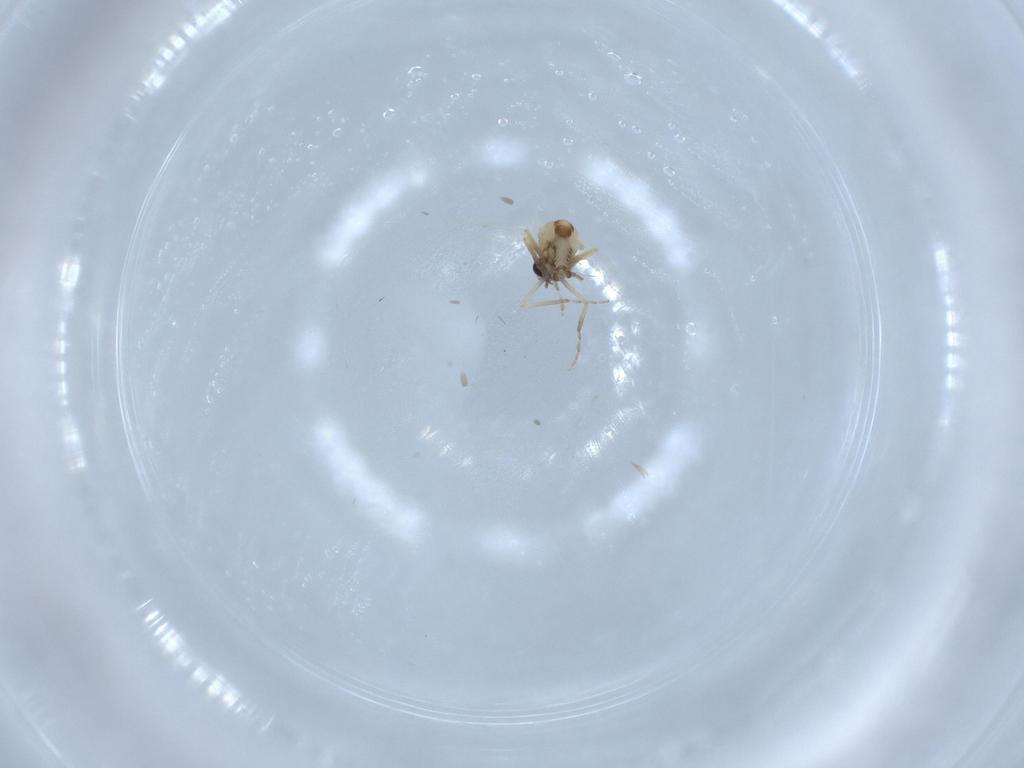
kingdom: Animalia
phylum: Arthropoda
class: Insecta
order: Diptera
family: Ceratopogonidae
